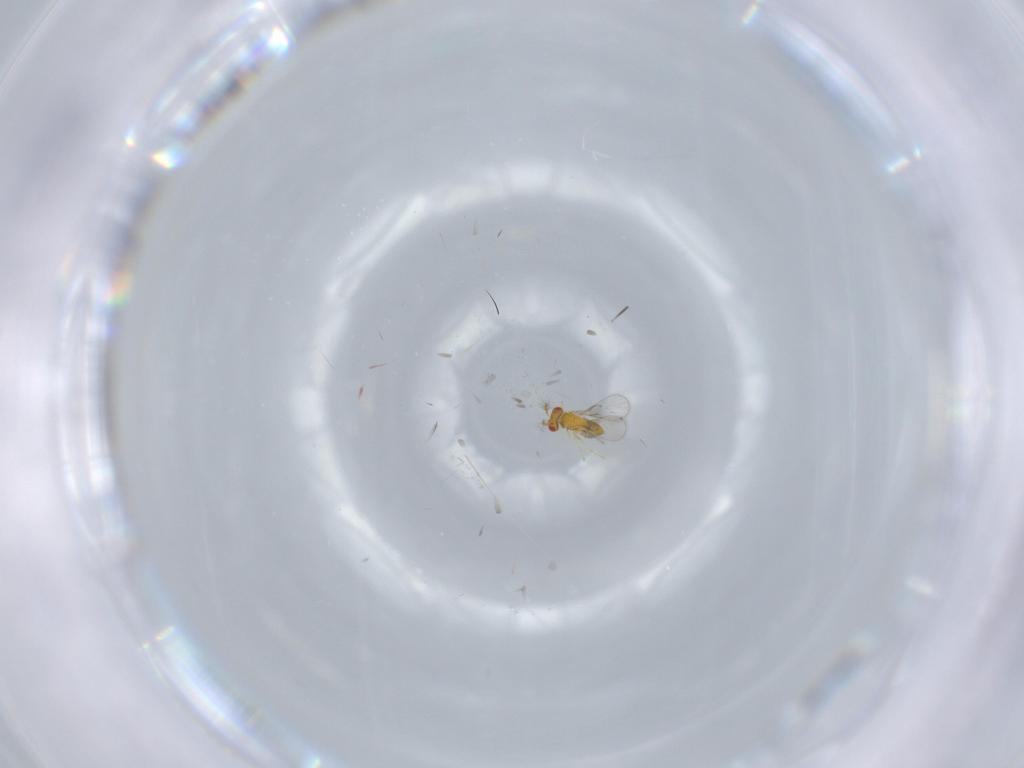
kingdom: Animalia
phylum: Arthropoda
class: Insecta
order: Hymenoptera
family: Trichogrammatidae
